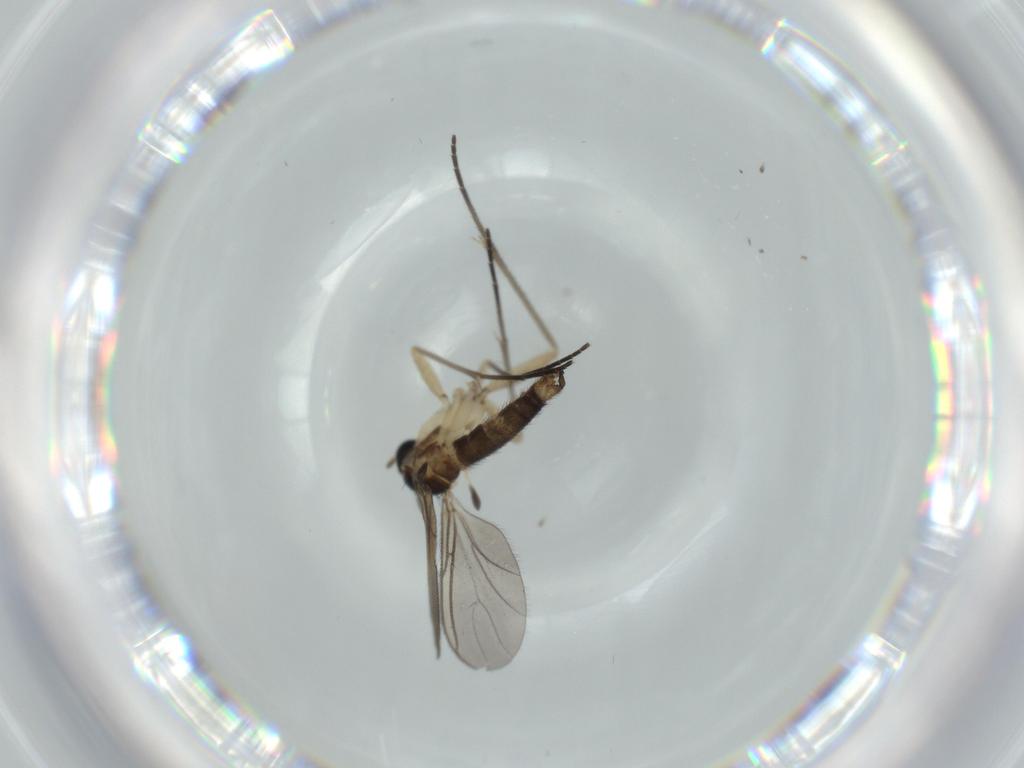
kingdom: Animalia
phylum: Arthropoda
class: Insecta
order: Diptera
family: Sciaridae
